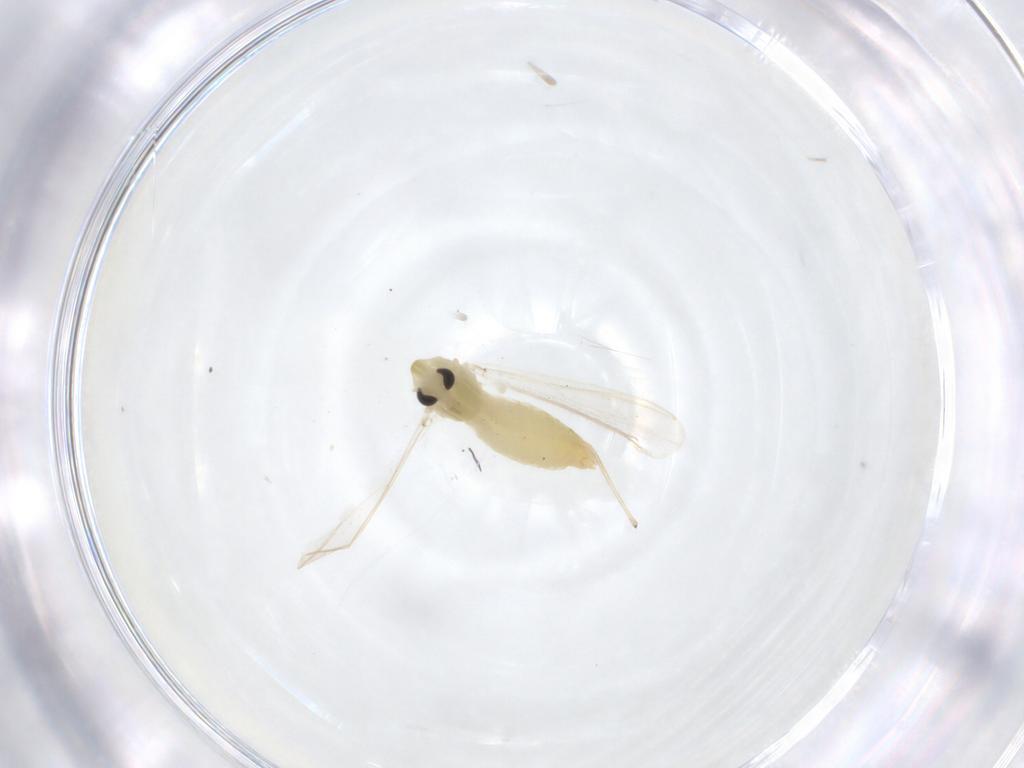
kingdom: Animalia
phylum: Arthropoda
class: Insecta
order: Diptera
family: Chironomidae
